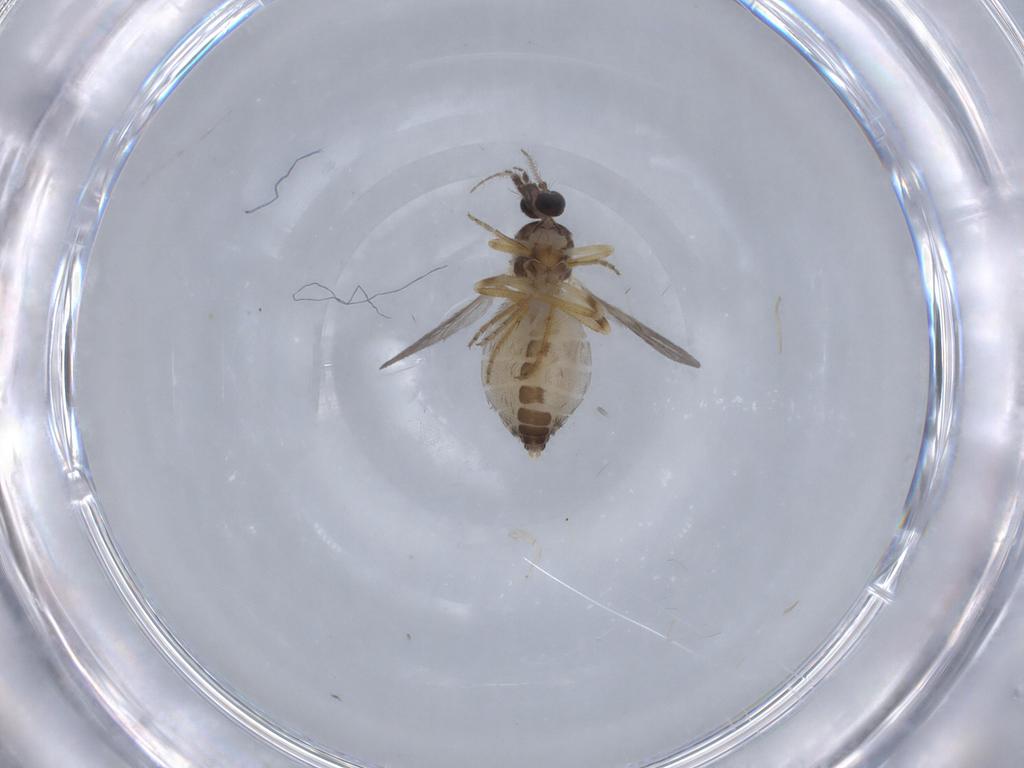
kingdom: Animalia
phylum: Arthropoda
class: Insecta
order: Diptera
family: Ceratopogonidae
